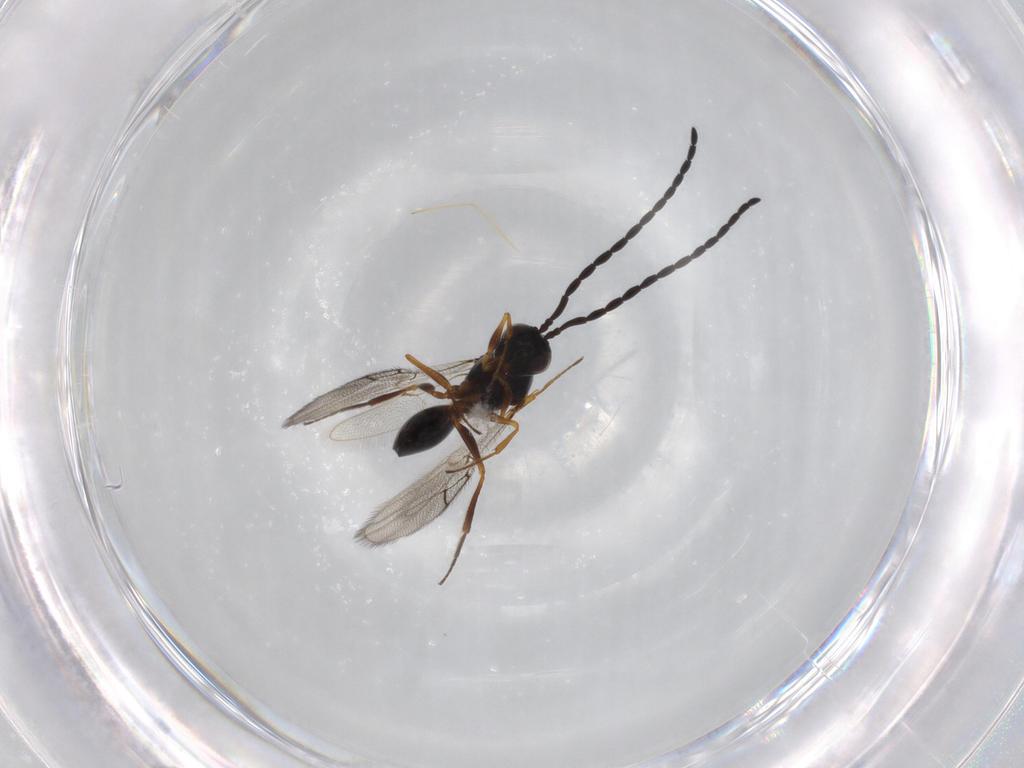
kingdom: Animalia
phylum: Arthropoda
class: Insecta
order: Hymenoptera
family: Figitidae
